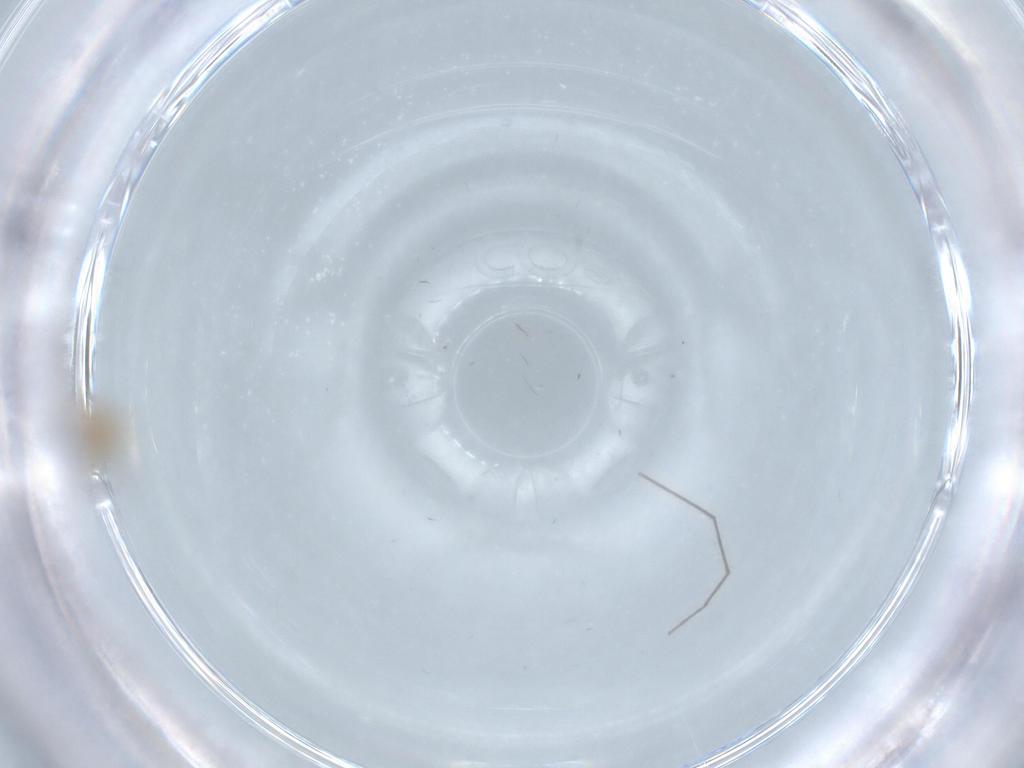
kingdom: Animalia
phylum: Arthropoda
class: Insecta
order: Diptera
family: Cecidomyiidae
